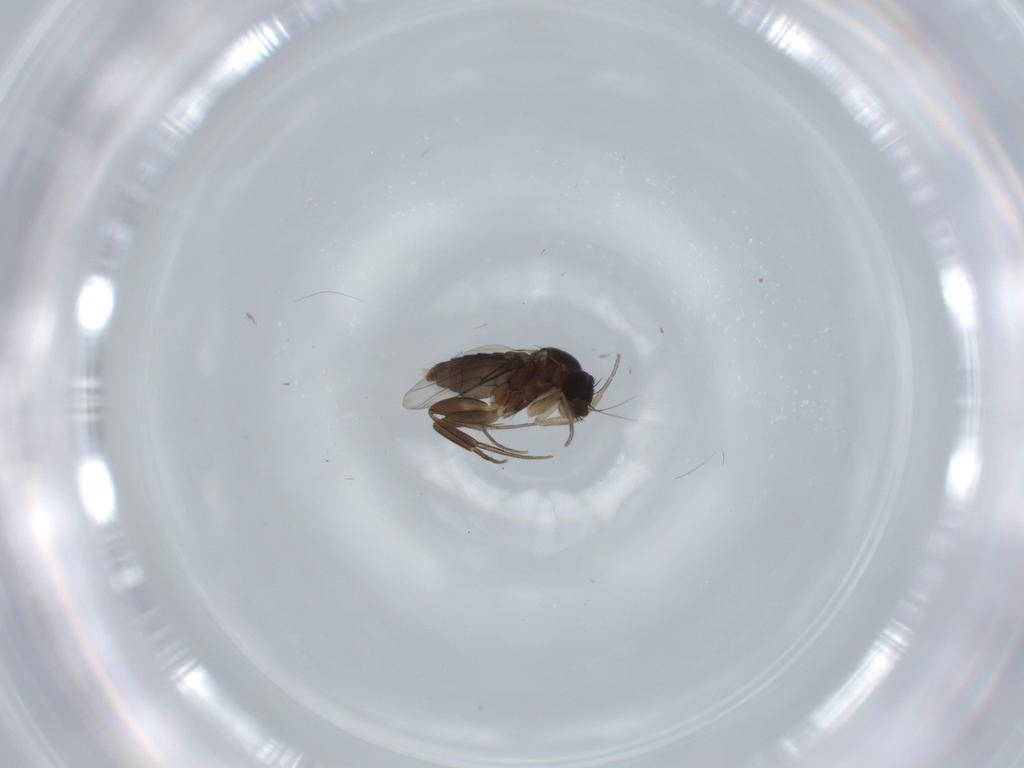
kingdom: Animalia
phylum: Arthropoda
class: Insecta
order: Diptera
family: Phoridae
